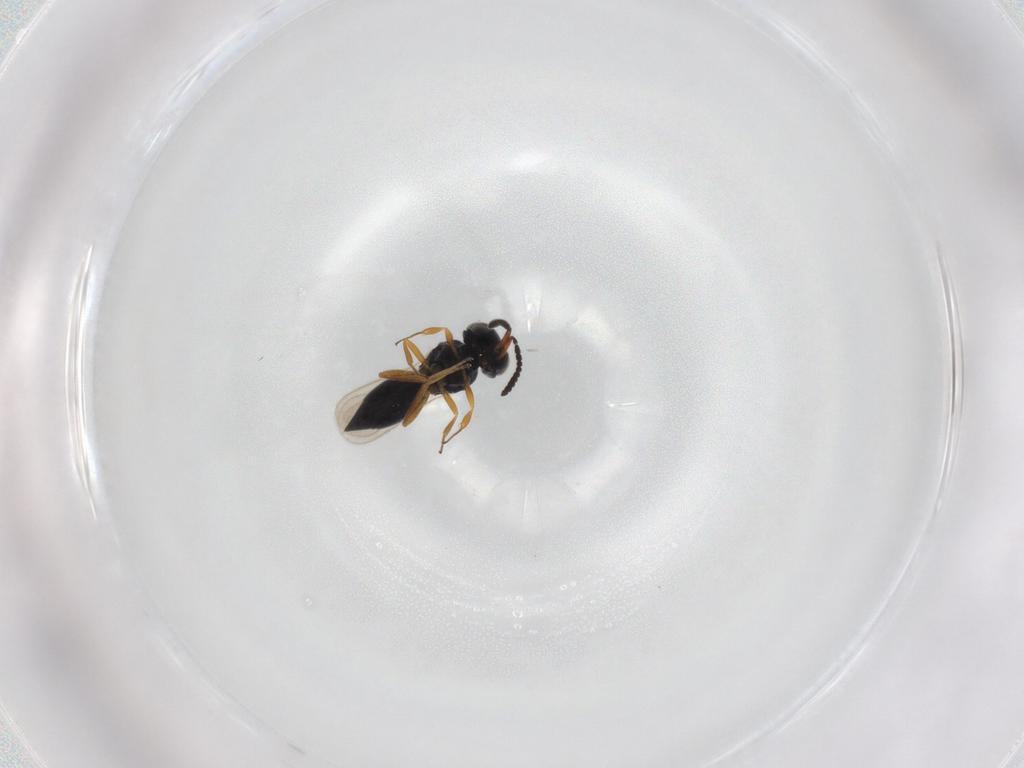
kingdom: Animalia
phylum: Arthropoda
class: Insecta
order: Hymenoptera
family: Scelionidae
